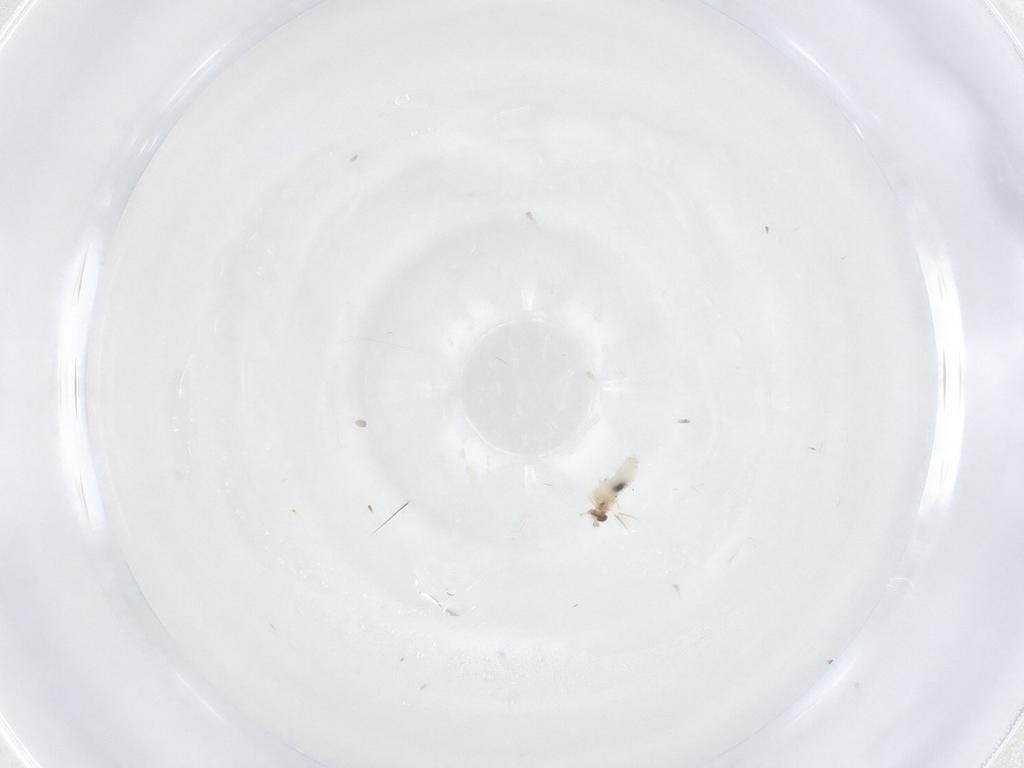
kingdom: Animalia
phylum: Arthropoda
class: Insecta
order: Diptera
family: Cecidomyiidae
